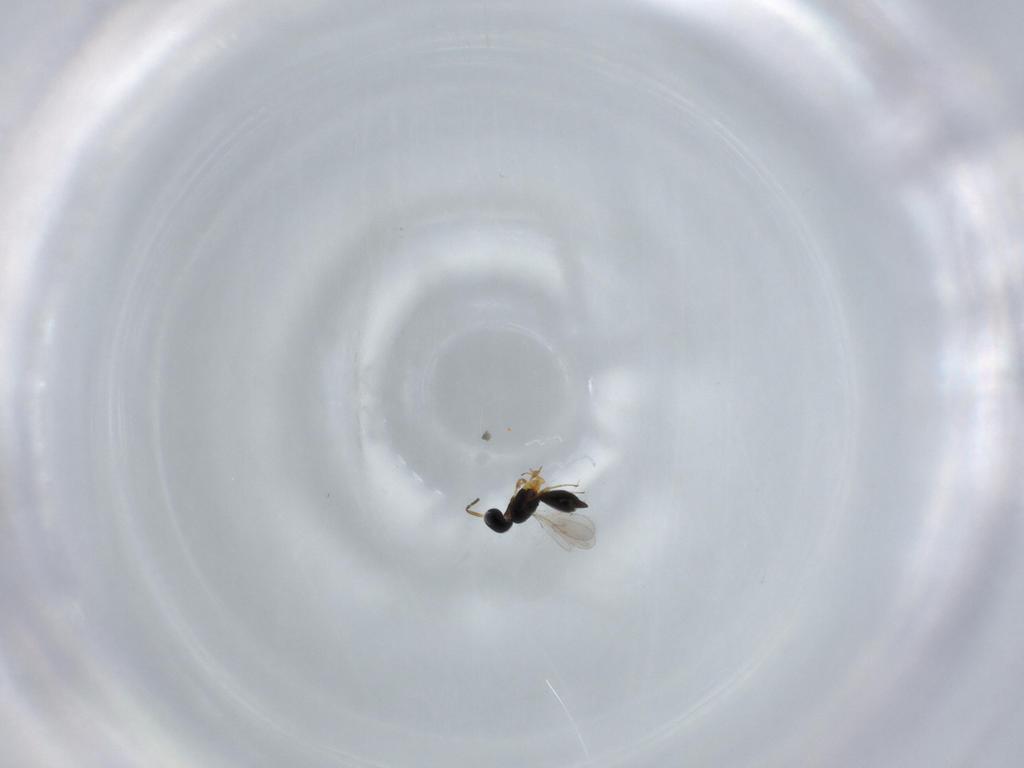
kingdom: Animalia
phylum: Arthropoda
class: Insecta
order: Hymenoptera
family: Scelionidae
